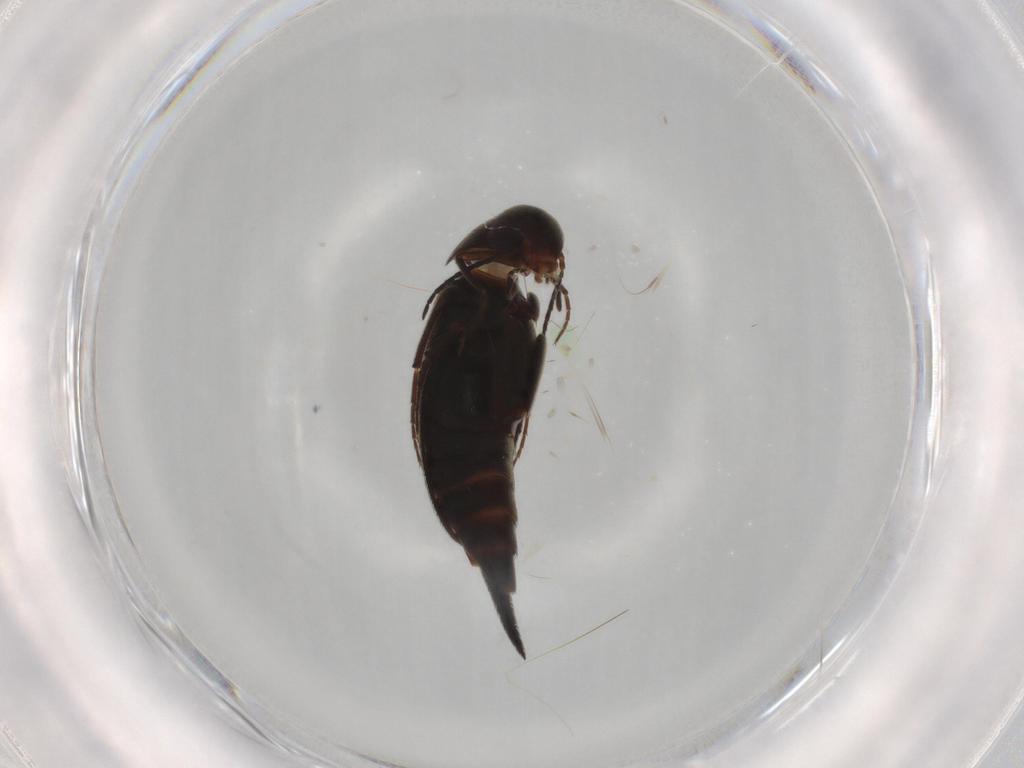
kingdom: Animalia
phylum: Arthropoda
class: Insecta
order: Coleoptera
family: Mordellidae
